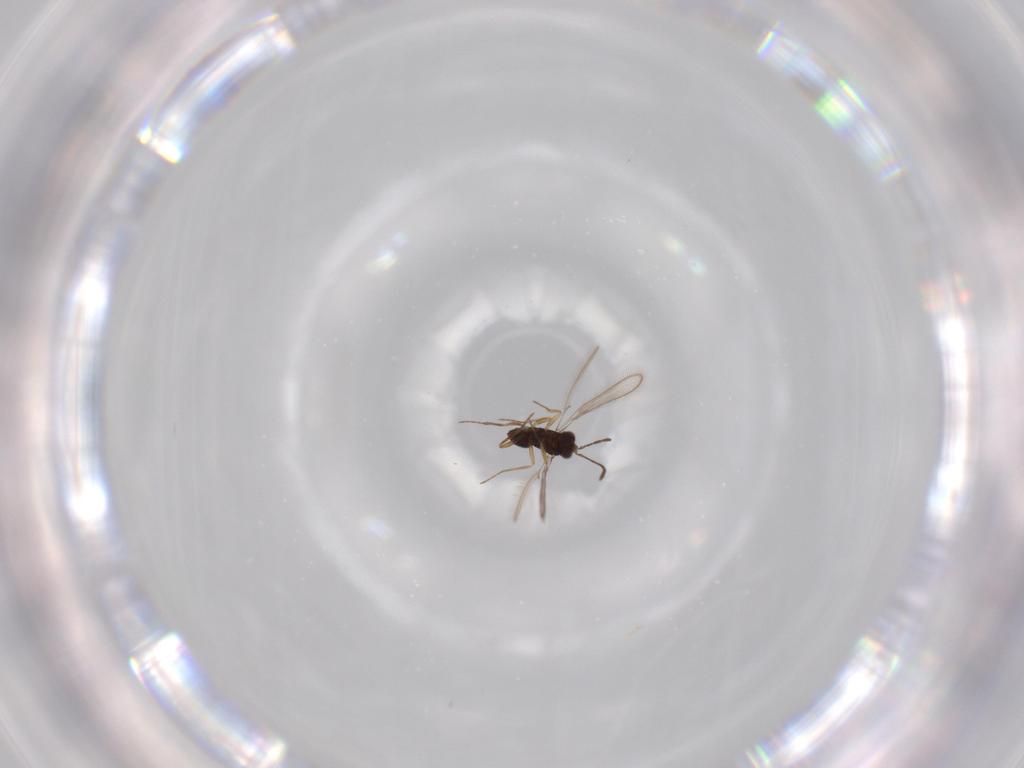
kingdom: Animalia
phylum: Arthropoda
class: Insecta
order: Hymenoptera
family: Mymaridae
